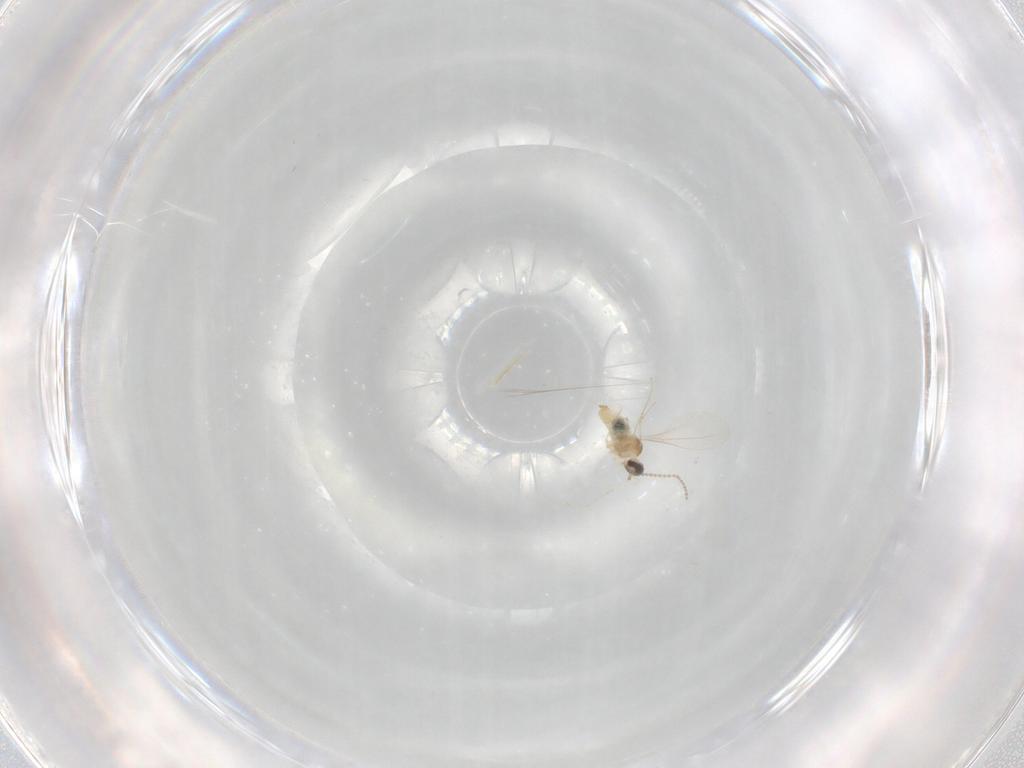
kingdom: Animalia
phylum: Arthropoda
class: Insecta
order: Diptera
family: Cecidomyiidae
